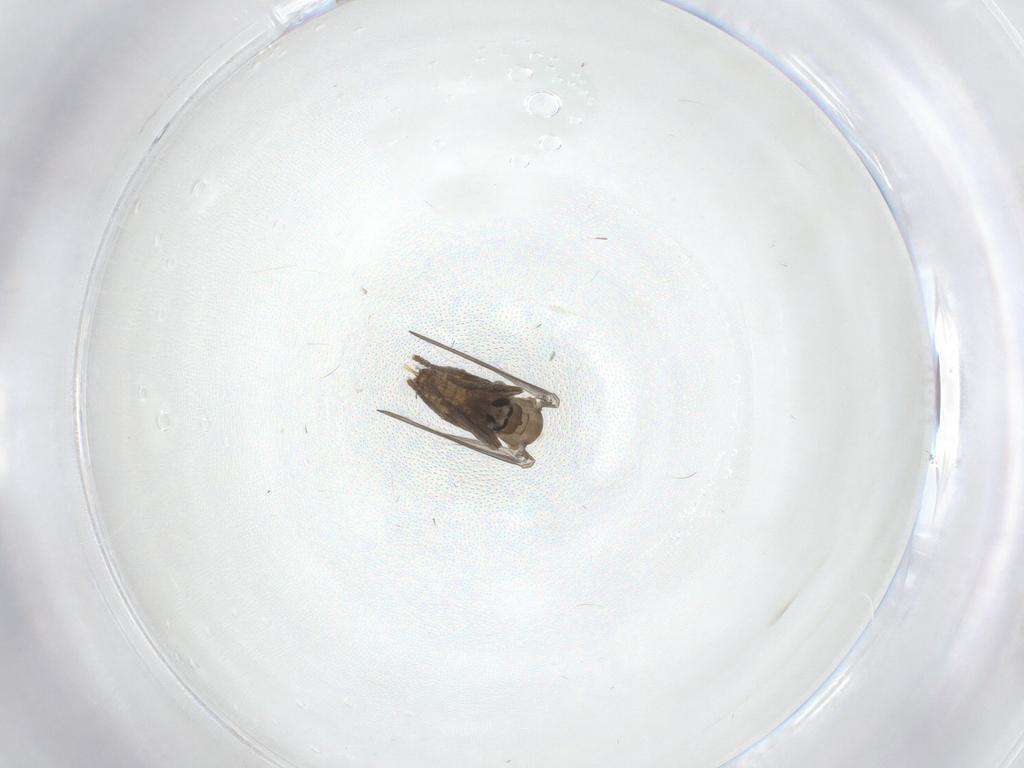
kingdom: Animalia
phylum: Arthropoda
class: Insecta
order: Diptera
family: Psychodidae
